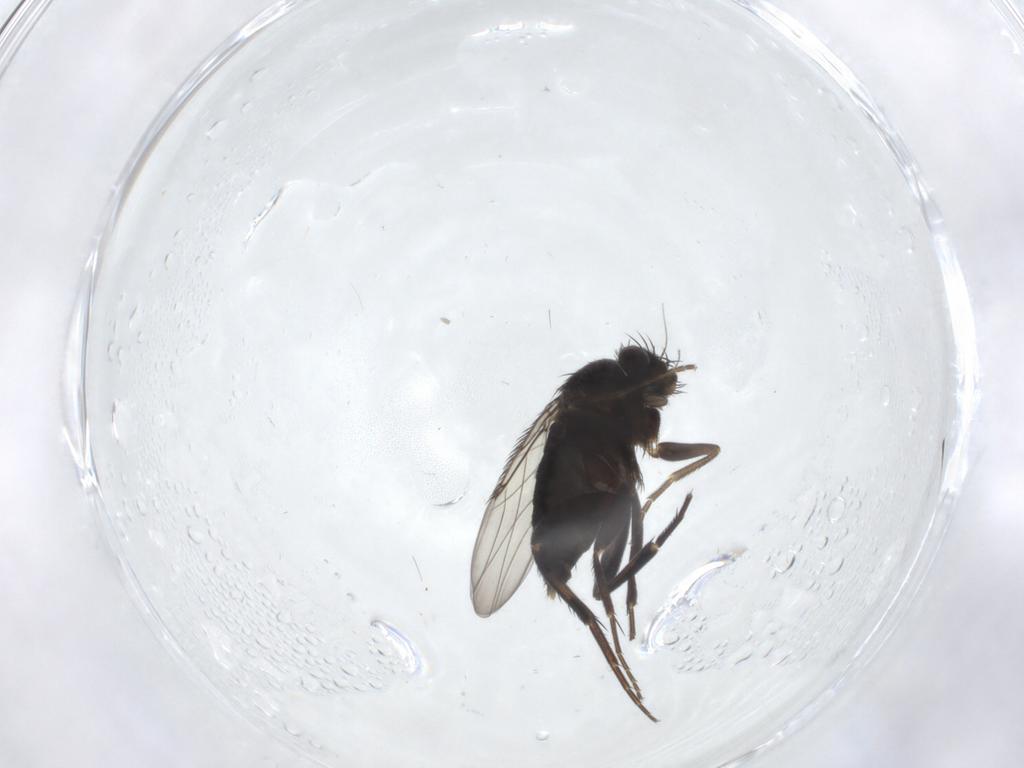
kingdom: Animalia
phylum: Arthropoda
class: Insecta
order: Diptera
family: Phoridae
